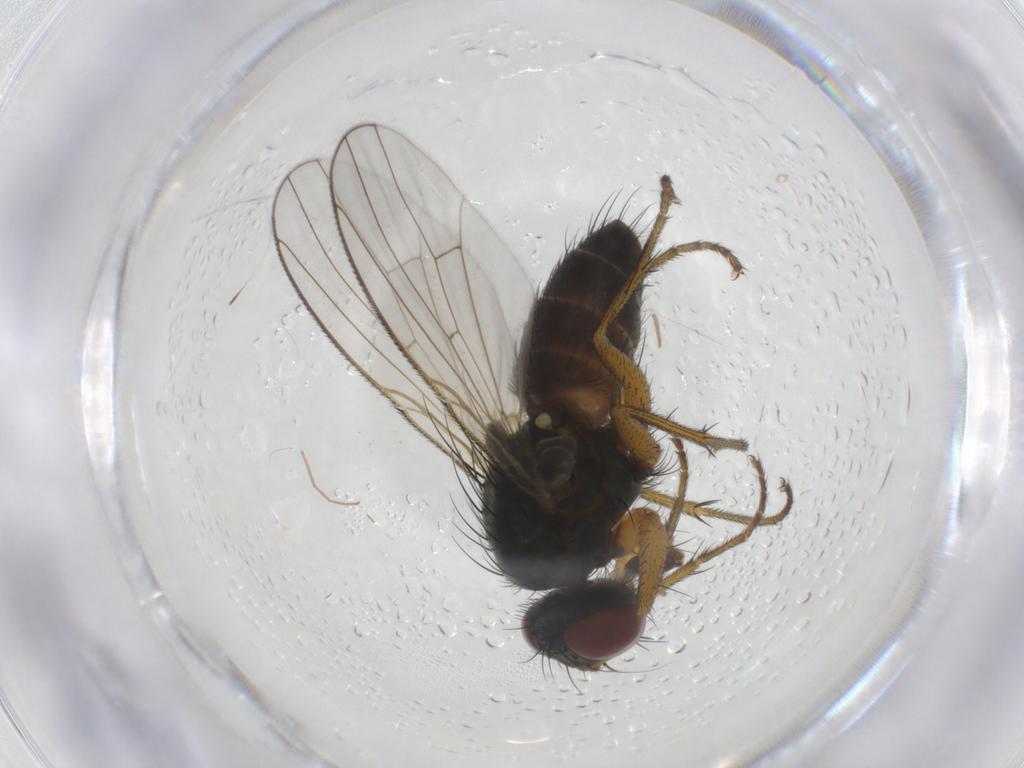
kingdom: Animalia
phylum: Arthropoda
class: Insecta
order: Diptera
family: Muscidae
